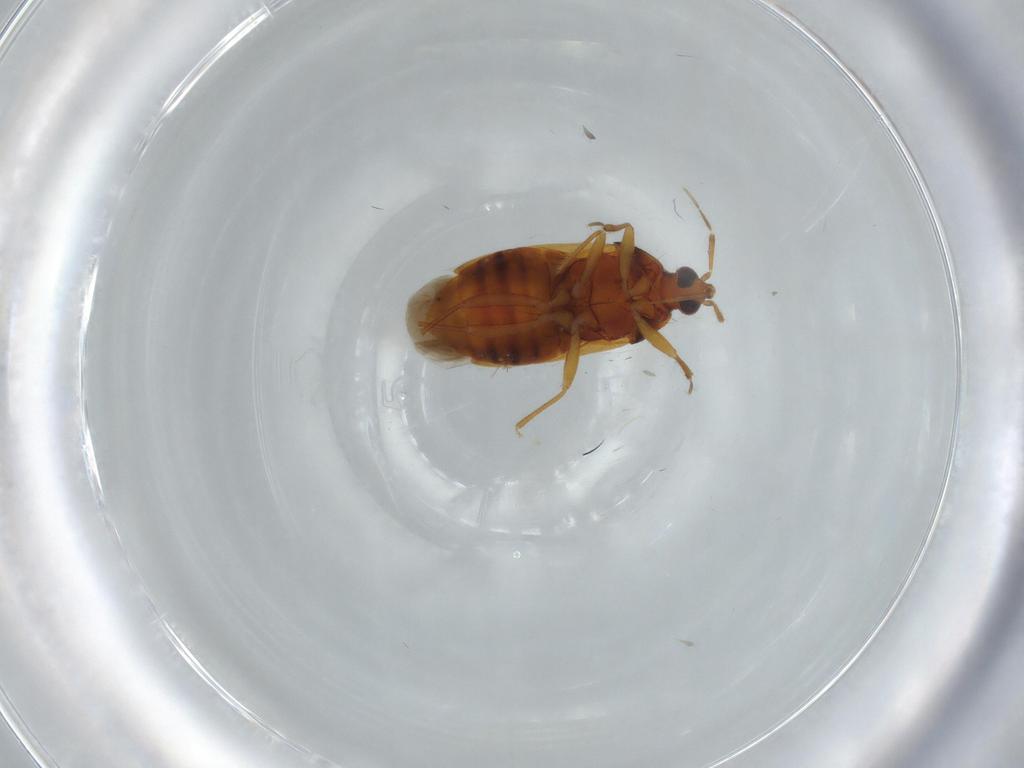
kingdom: Animalia
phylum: Arthropoda
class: Insecta
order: Hemiptera
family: Anthocoridae
